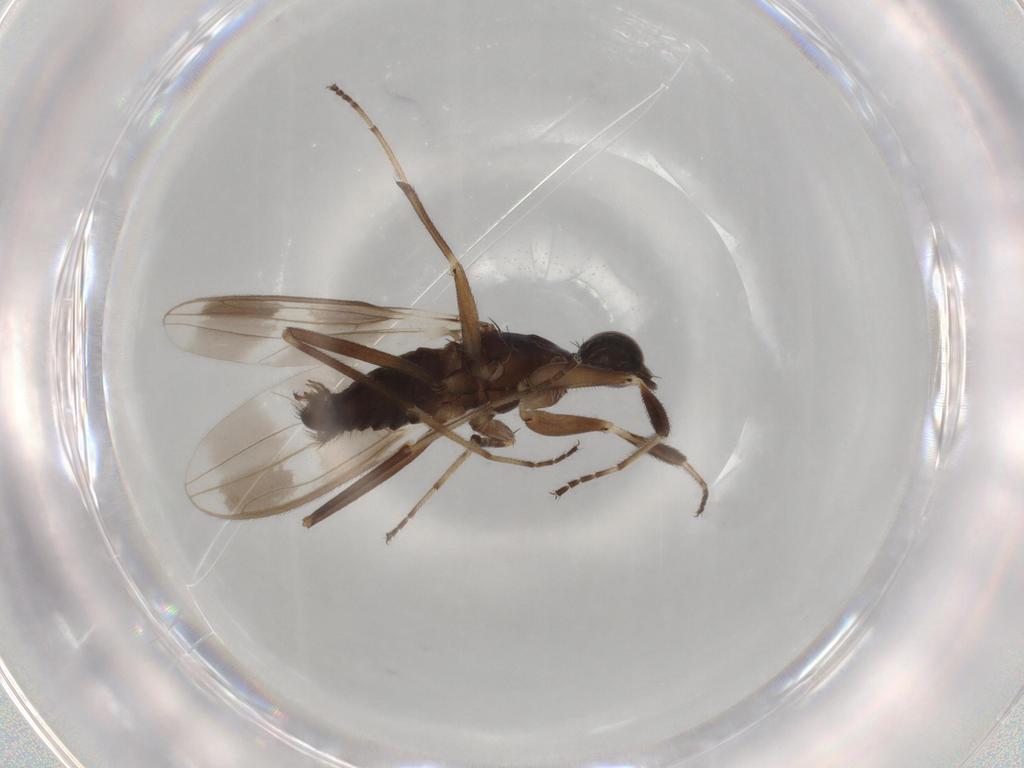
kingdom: Animalia
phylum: Arthropoda
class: Insecta
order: Diptera
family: Hybotidae
